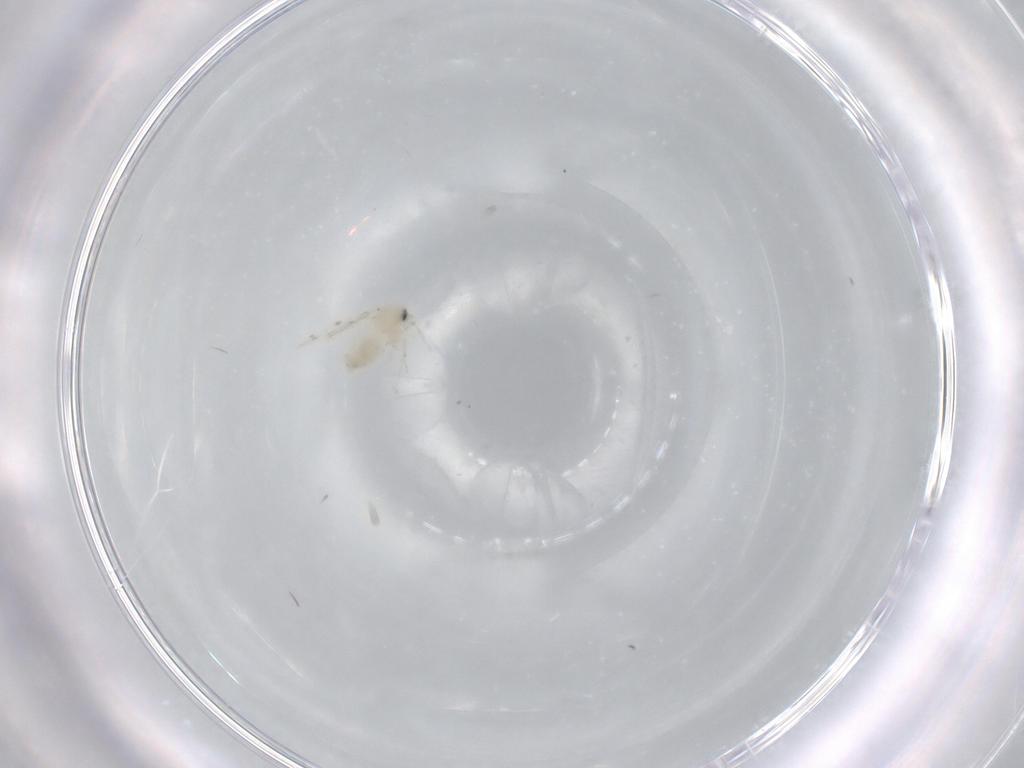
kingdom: Animalia
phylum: Arthropoda
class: Insecta
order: Hemiptera
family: Aleyrodidae
